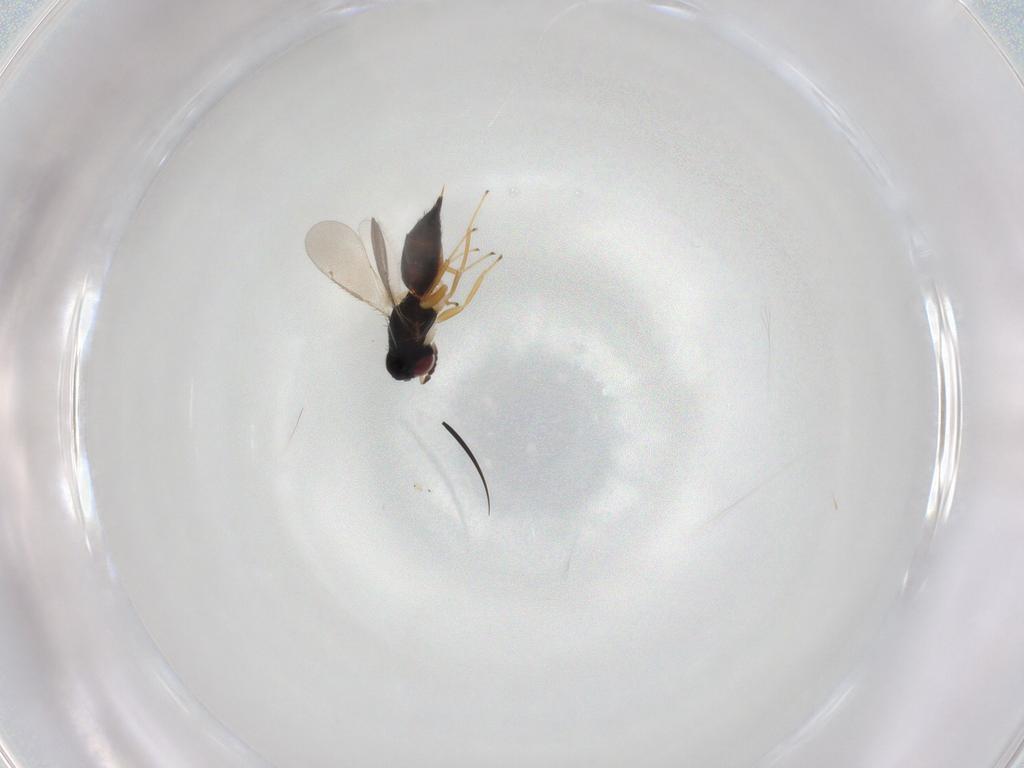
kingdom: Animalia
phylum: Arthropoda
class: Insecta
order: Hymenoptera
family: Eulophidae
